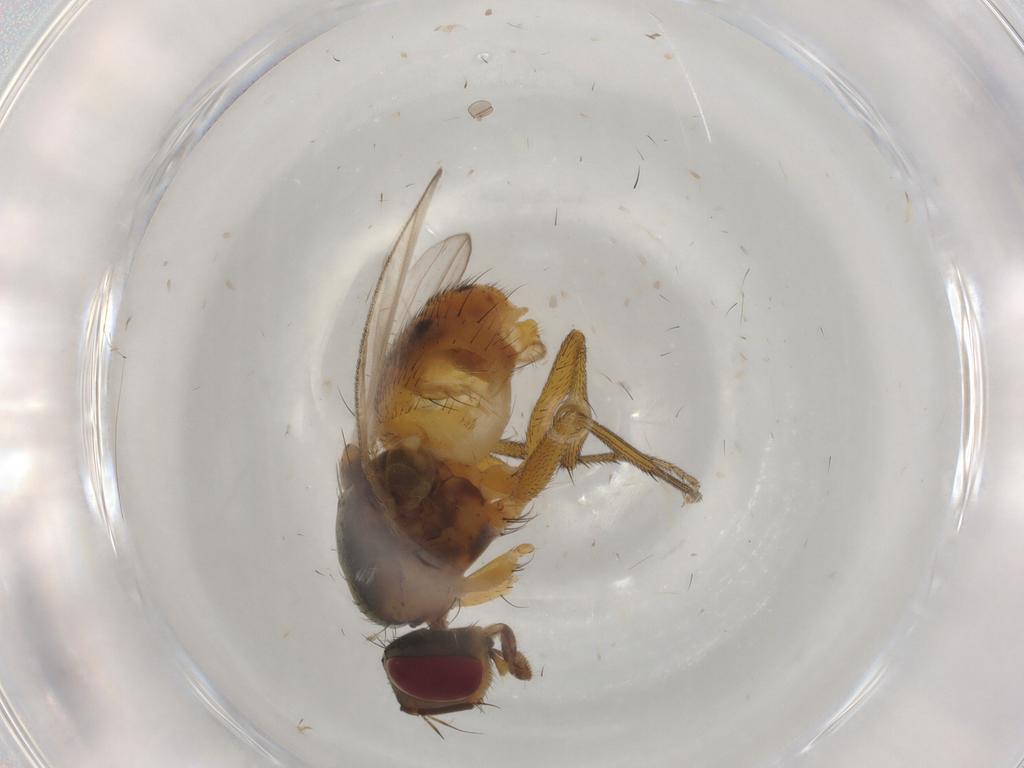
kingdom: Animalia
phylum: Arthropoda
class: Insecta
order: Diptera
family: Muscidae
